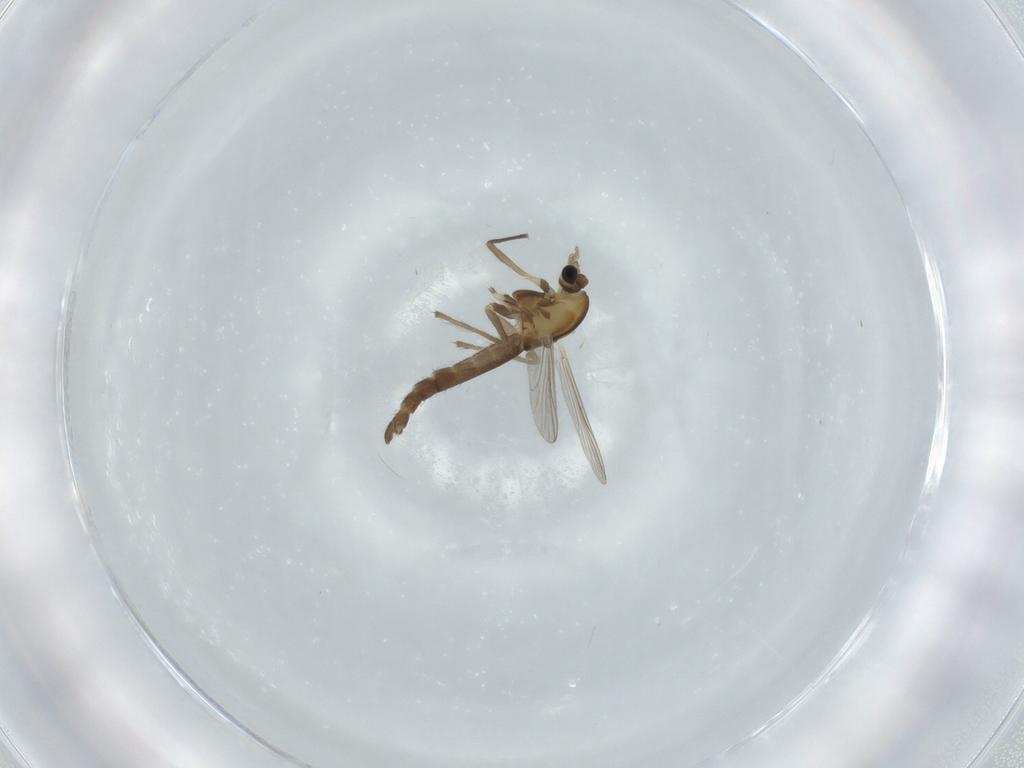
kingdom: Animalia
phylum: Arthropoda
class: Insecta
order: Diptera
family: Chironomidae
